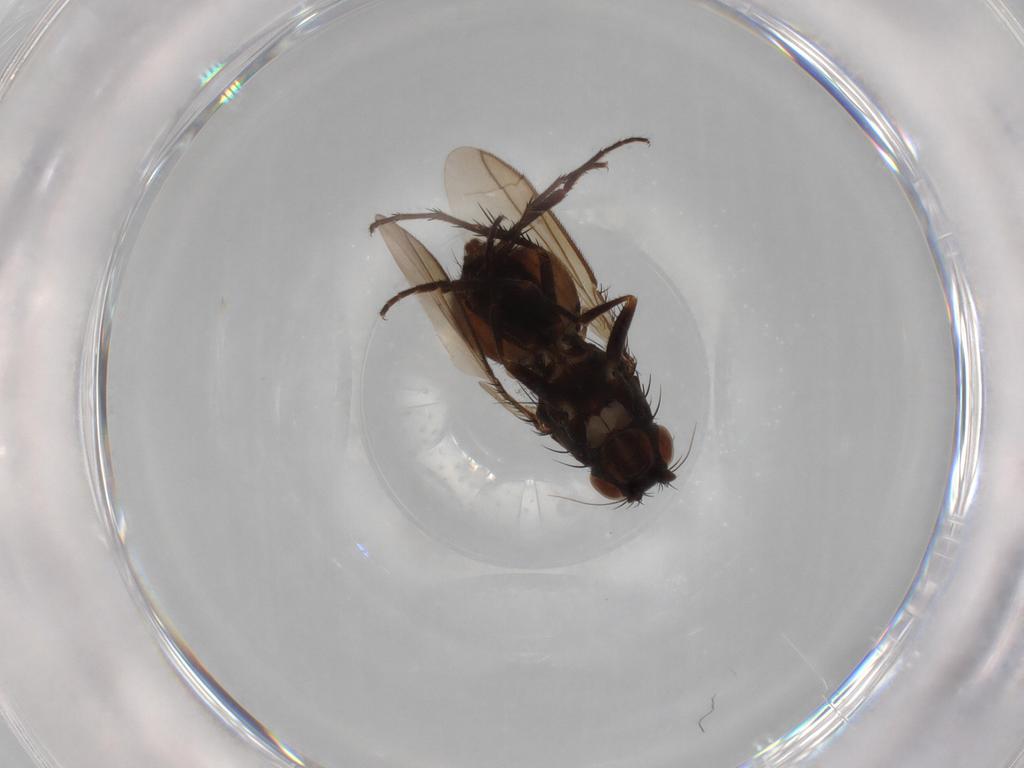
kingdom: Animalia
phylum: Arthropoda
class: Insecta
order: Diptera
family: Sphaeroceridae
